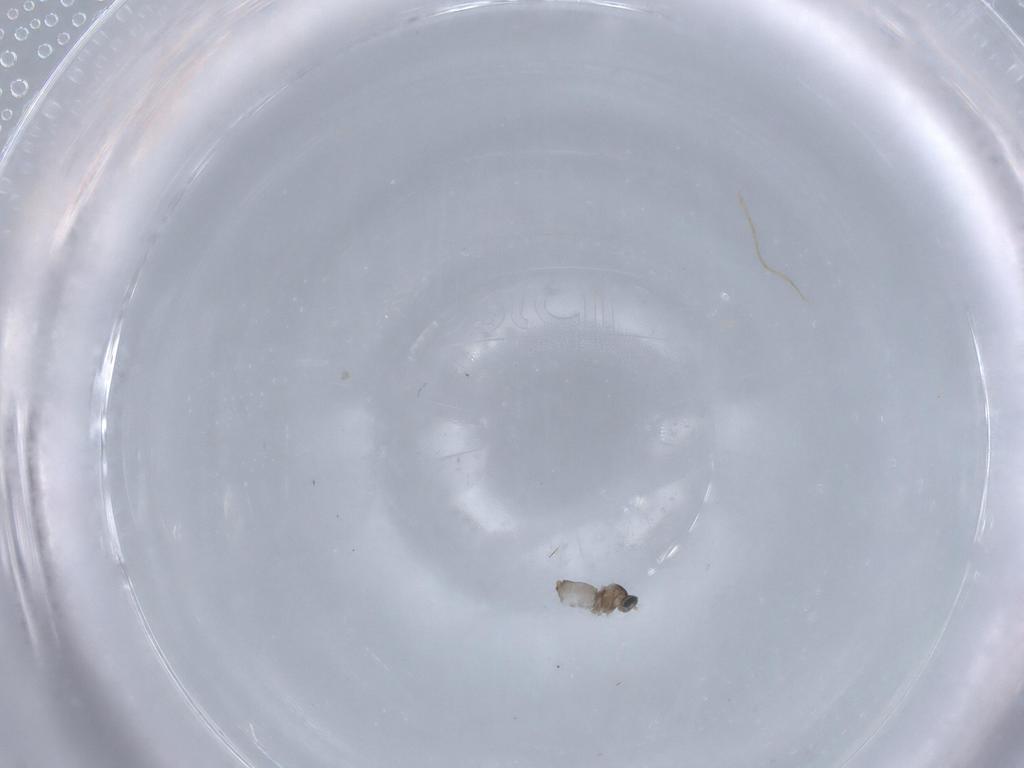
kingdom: Animalia
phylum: Arthropoda
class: Insecta
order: Diptera
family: Cecidomyiidae
